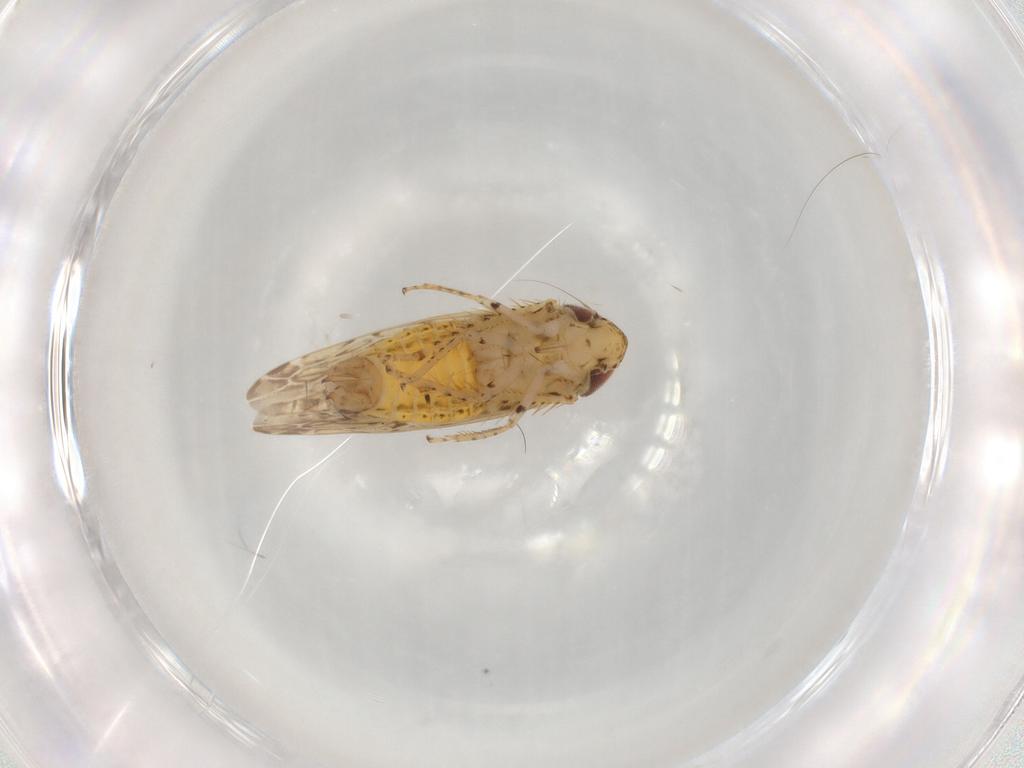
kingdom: Animalia
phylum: Arthropoda
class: Insecta
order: Hemiptera
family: Cicadellidae
